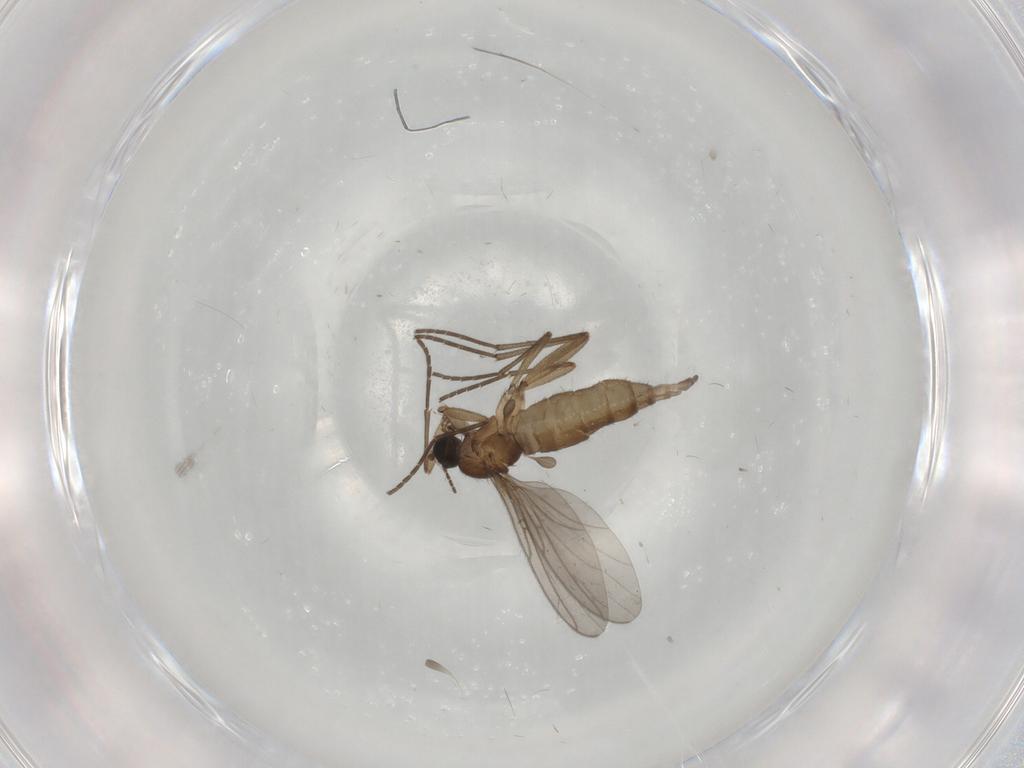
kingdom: Animalia
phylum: Arthropoda
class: Insecta
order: Diptera
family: Sciaridae
